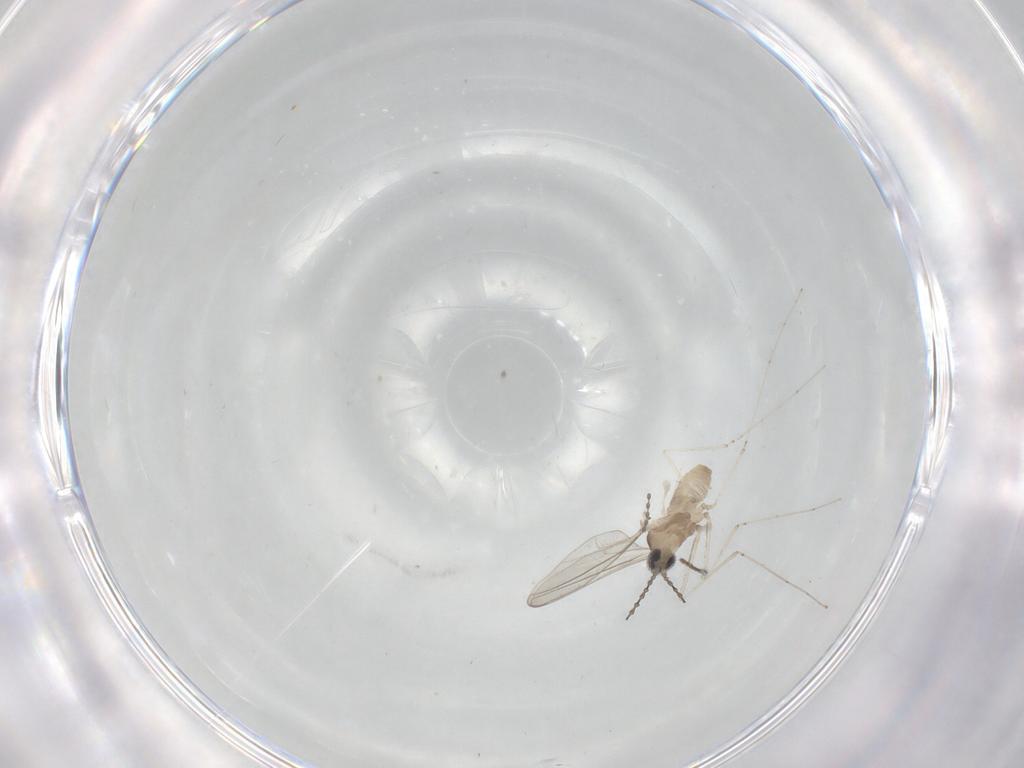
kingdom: Animalia
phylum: Arthropoda
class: Insecta
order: Diptera
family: Cecidomyiidae
